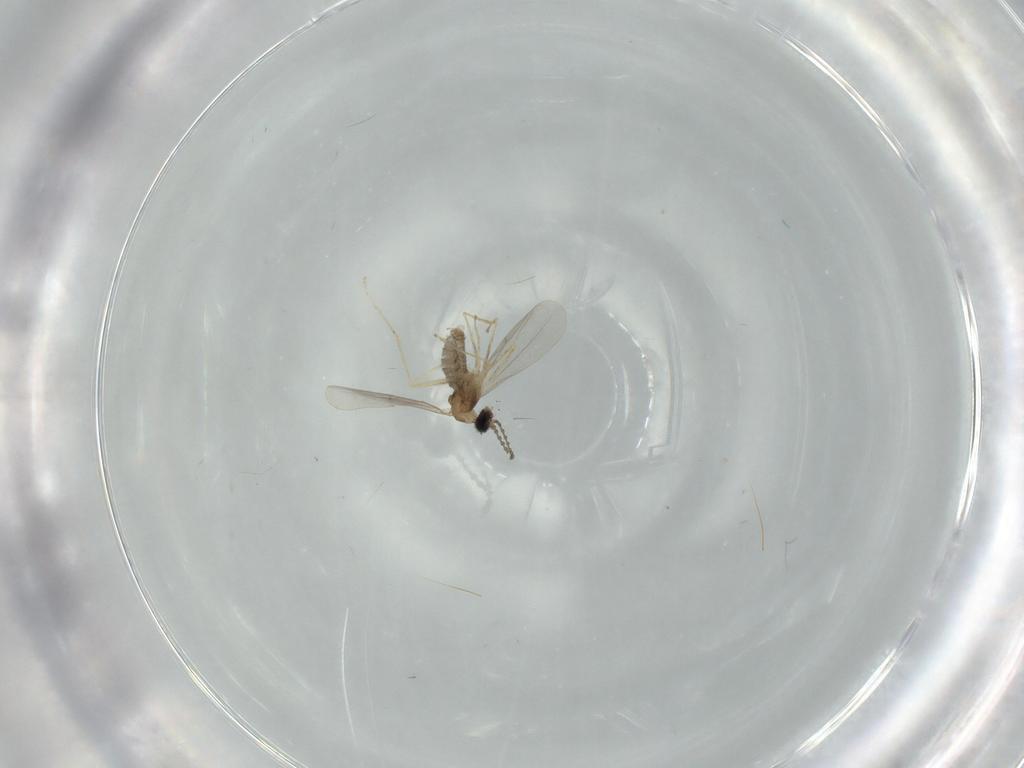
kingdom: Animalia
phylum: Arthropoda
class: Insecta
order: Diptera
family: Cecidomyiidae
